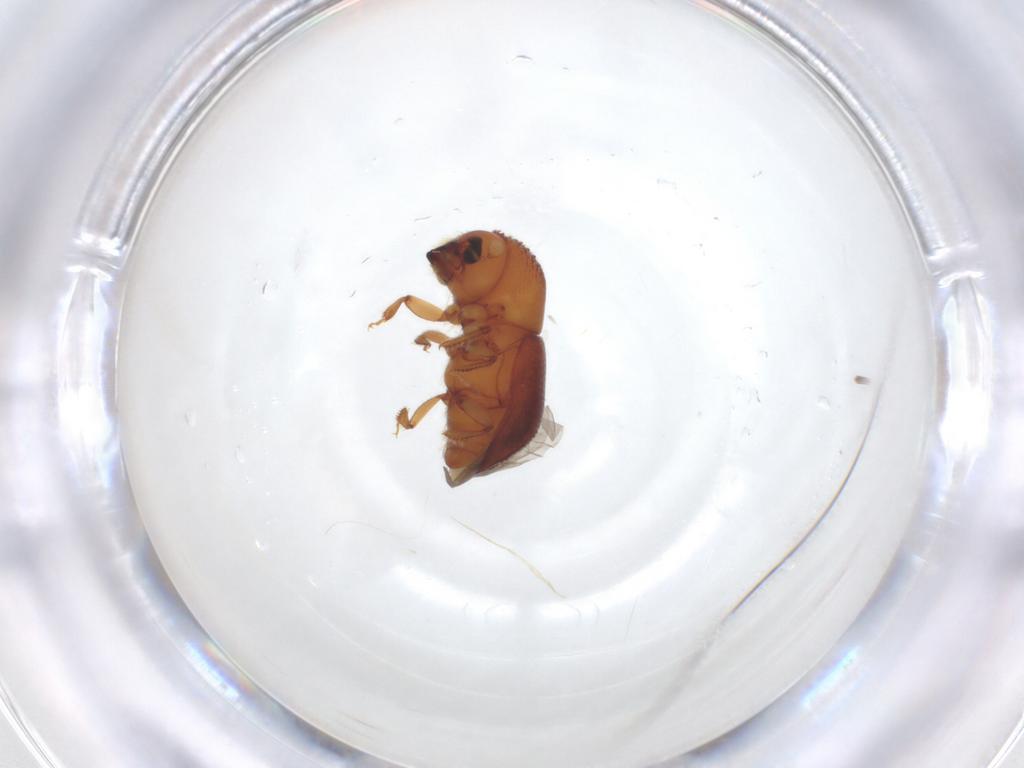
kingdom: Animalia
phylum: Arthropoda
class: Insecta
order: Coleoptera
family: Curculionidae
